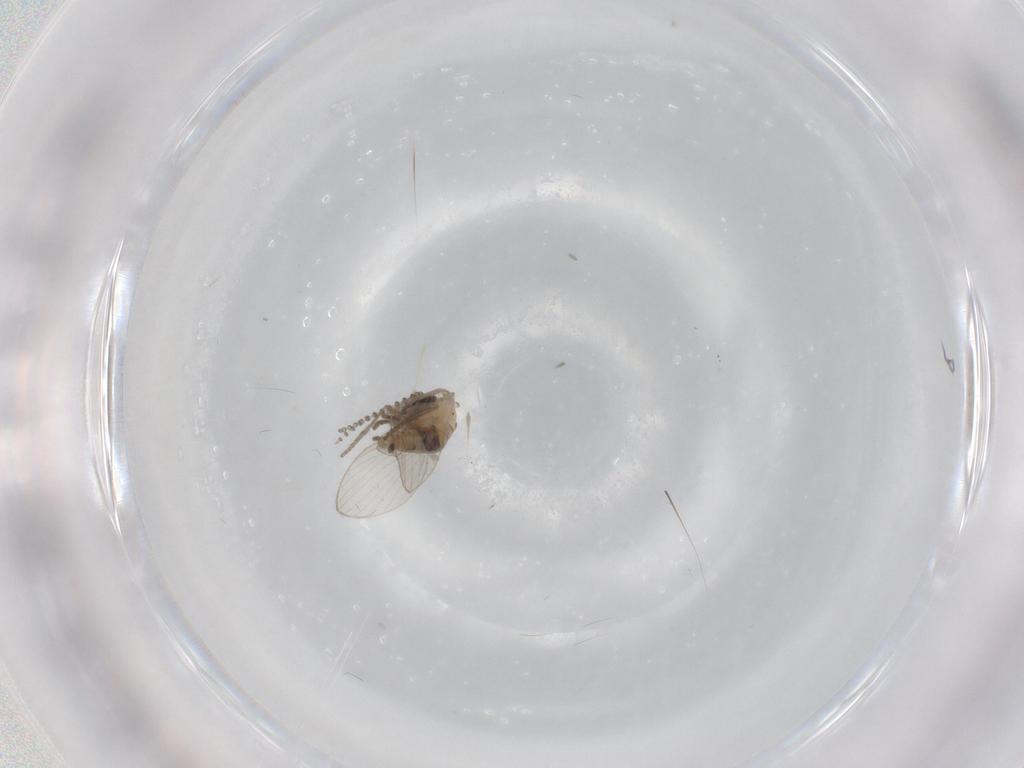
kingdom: Animalia
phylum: Arthropoda
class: Insecta
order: Diptera
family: Psychodidae
